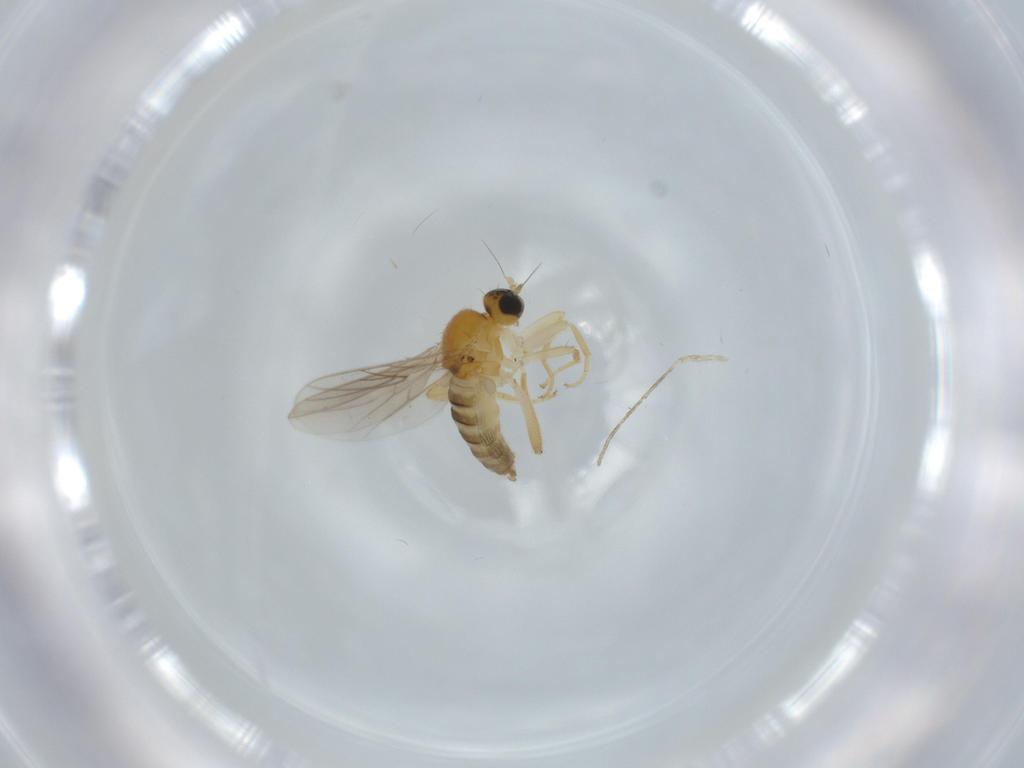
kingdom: Animalia
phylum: Arthropoda
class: Insecta
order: Diptera
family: Psychodidae
